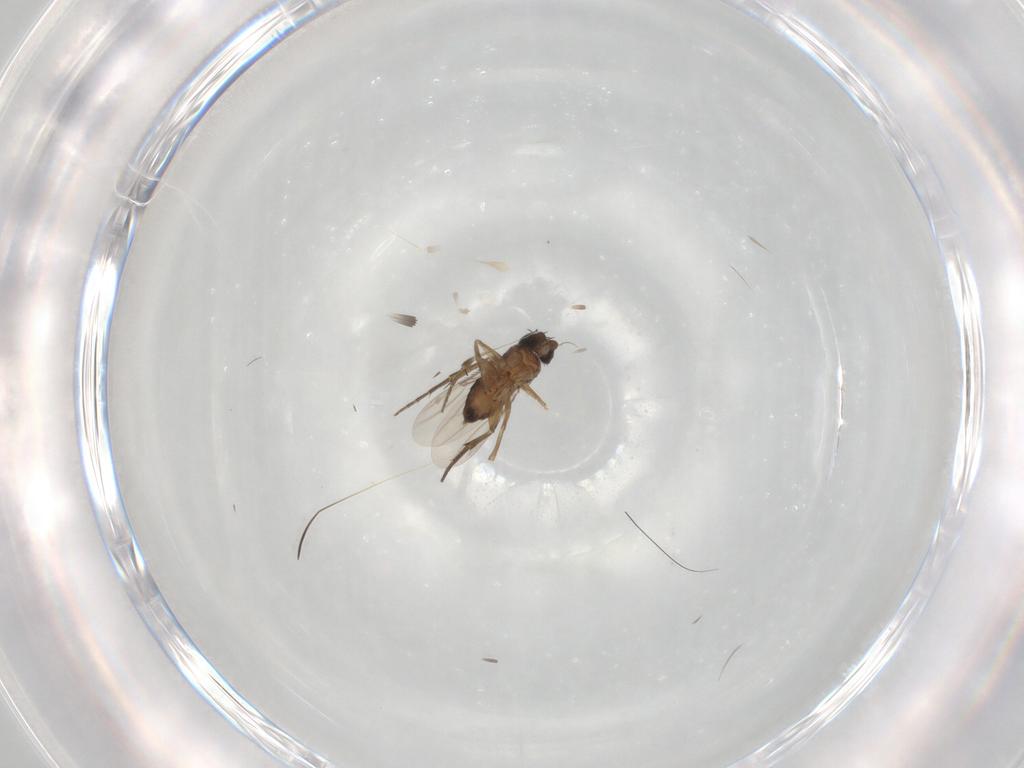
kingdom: Animalia
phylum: Arthropoda
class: Insecta
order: Diptera
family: Phoridae
